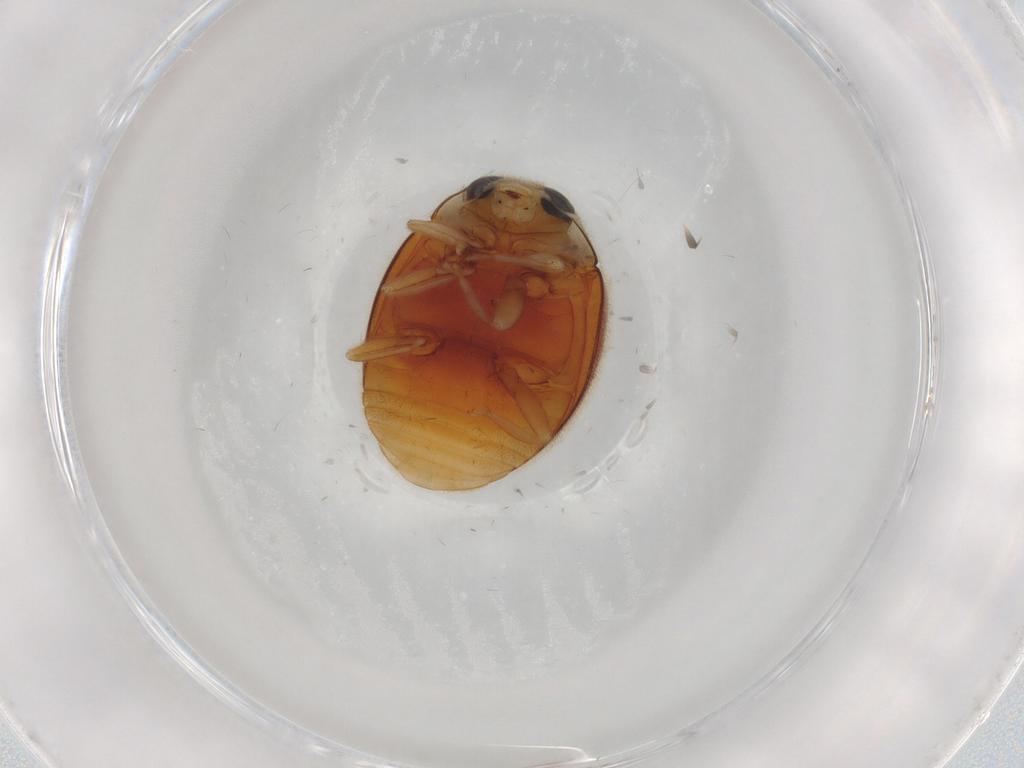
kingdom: Animalia
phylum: Arthropoda
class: Insecta
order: Coleoptera
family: Coccinellidae
